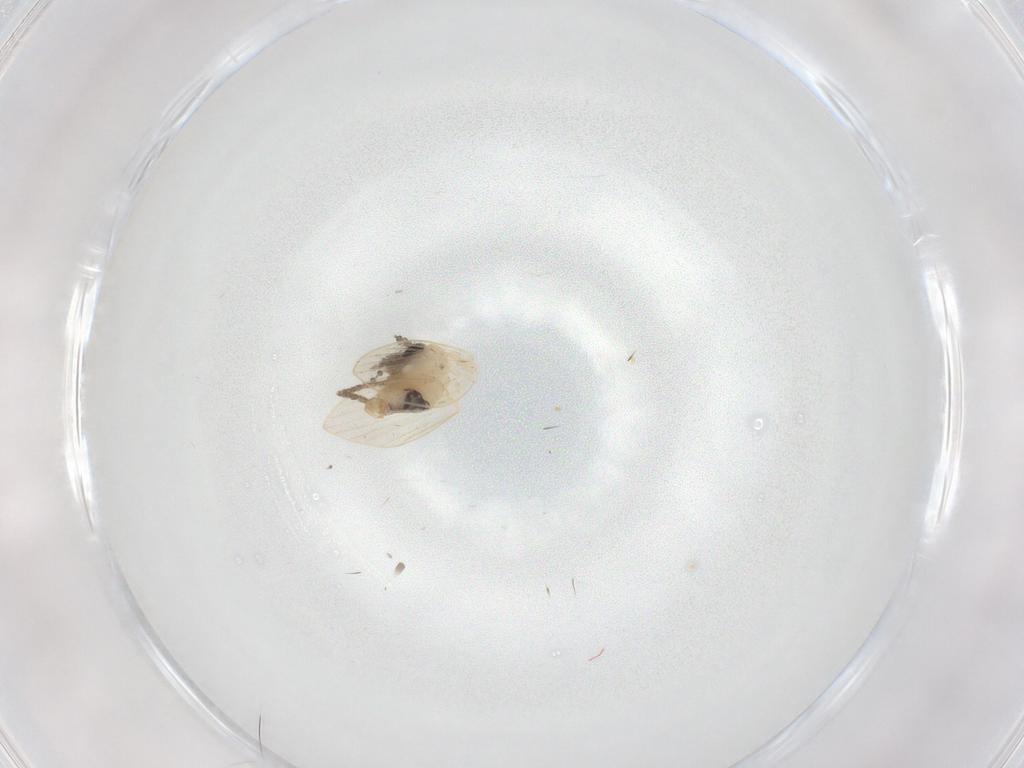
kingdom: Animalia
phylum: Arthropoda
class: Insecta
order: Diptera
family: Psychodidae
